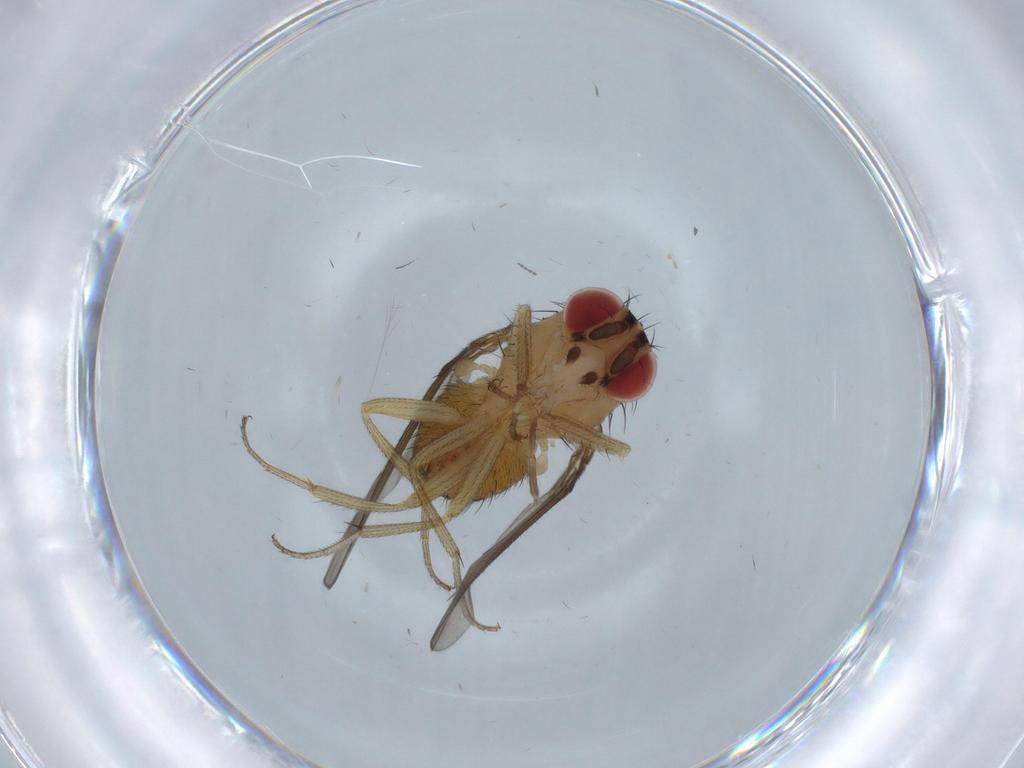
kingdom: Animalia
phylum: Arthropoda
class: Insecta
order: Diptera
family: Drosophilidae
